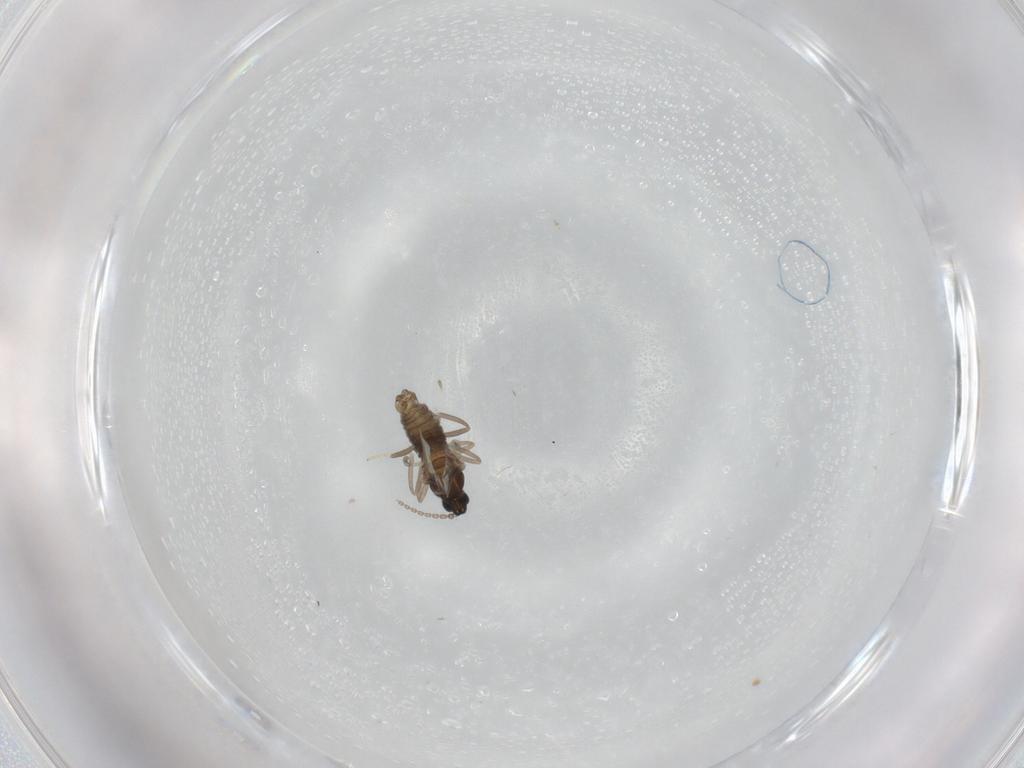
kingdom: Animalia
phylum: Arthropoda
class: Insecta
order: Diptera
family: Cecidomyiidae
